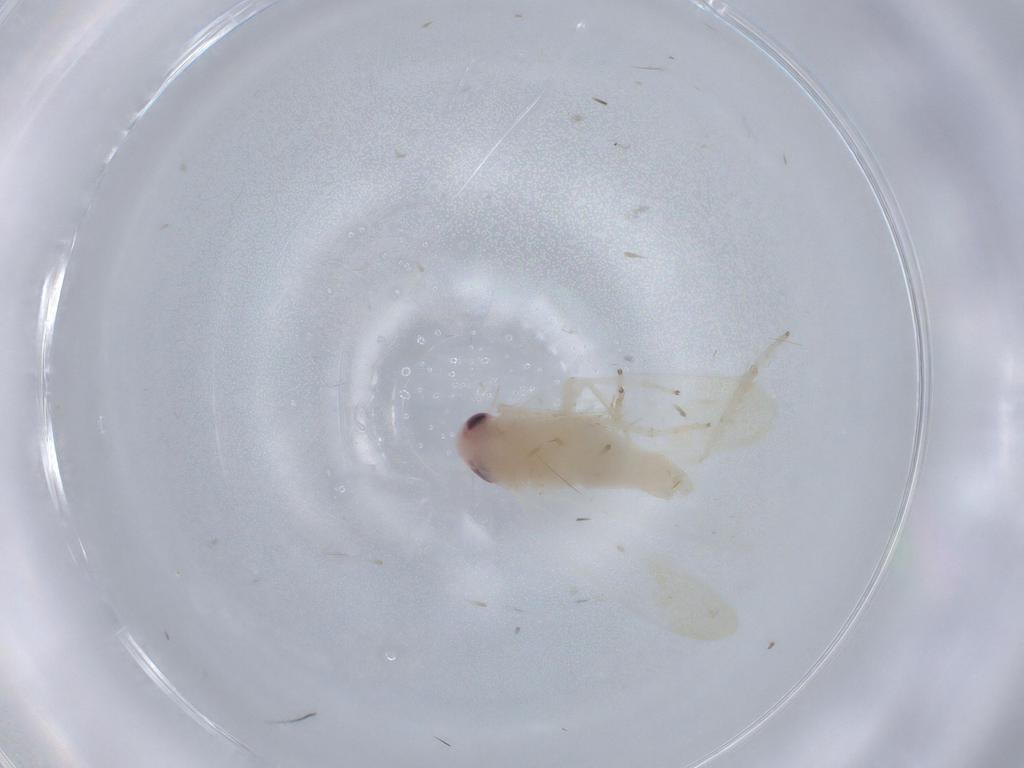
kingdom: Animalia
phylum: Arthropoda
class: Insecta
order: Hemiptera
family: Cicadellidae
